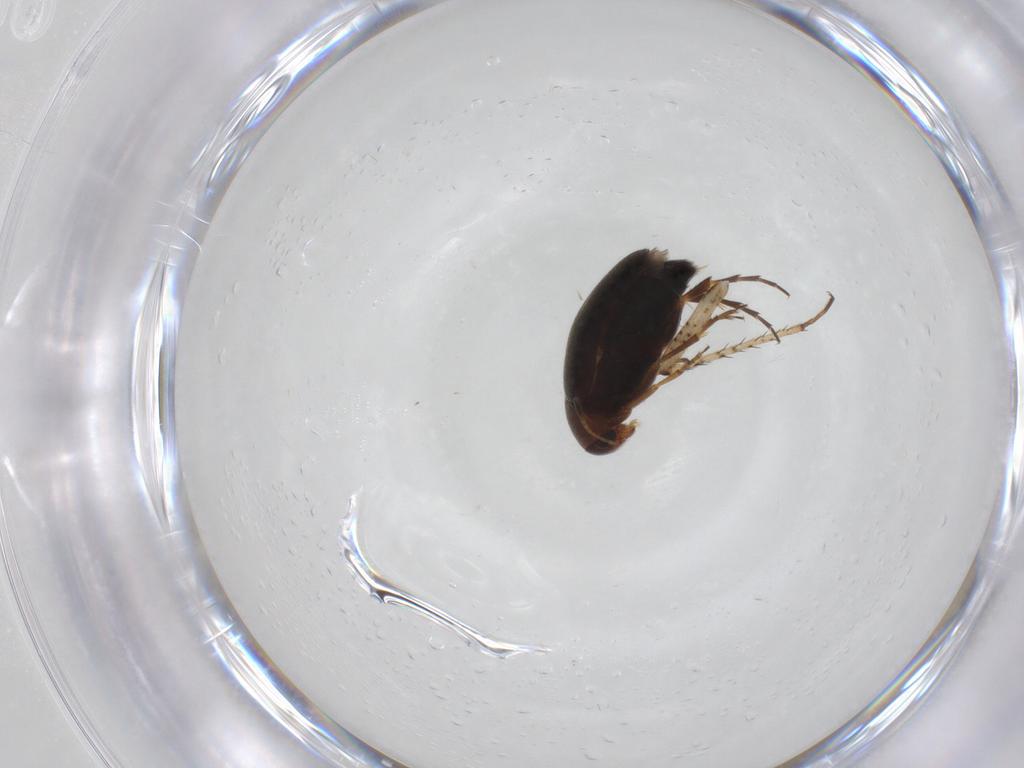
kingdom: Animalia
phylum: Arthropoda
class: Insecta
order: Coleoptera
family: Scraptiidae
